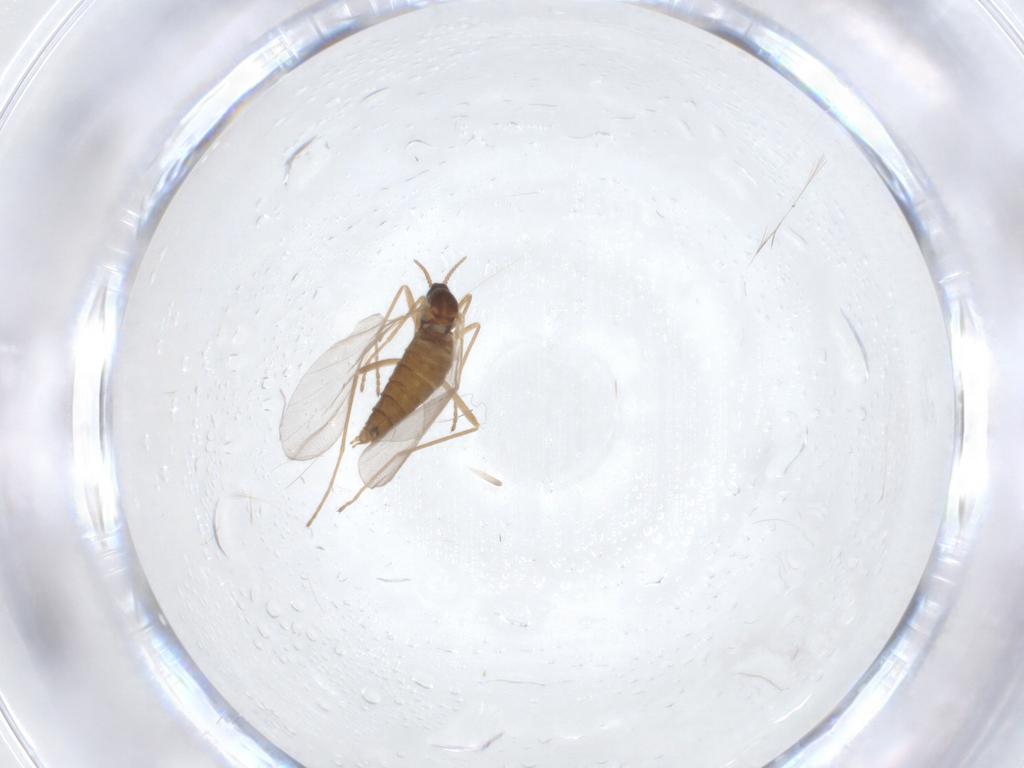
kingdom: Animalia
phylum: Arthropoda
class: Insecta
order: Diptera
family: Cecidomyiidae
